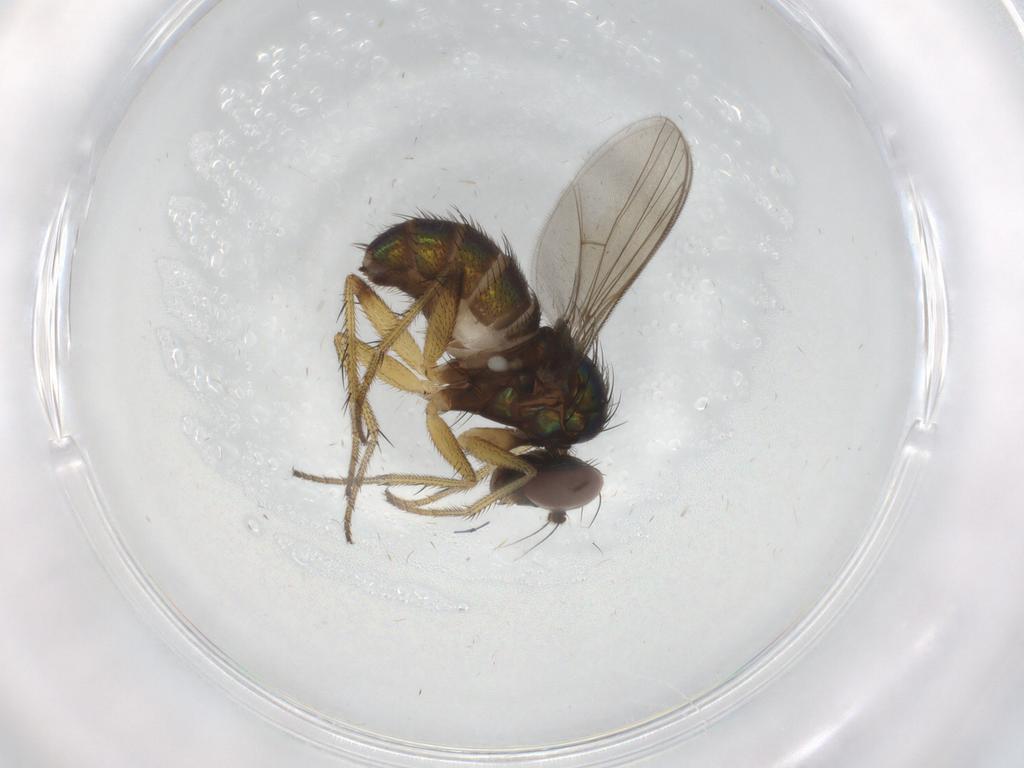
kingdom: Animalia
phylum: Arthropoda
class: Insecta
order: Diptera
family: Dolichopodidae
